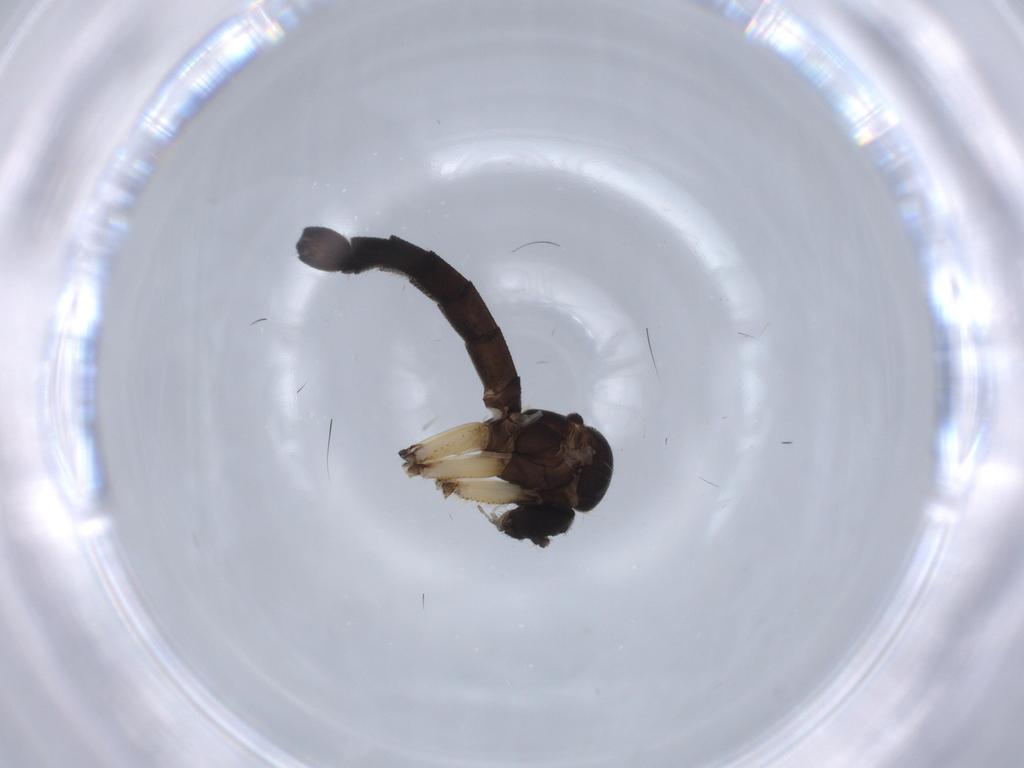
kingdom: Animalia
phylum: Arthropoda
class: Insecta
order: Diptera
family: Mycetophilidae
